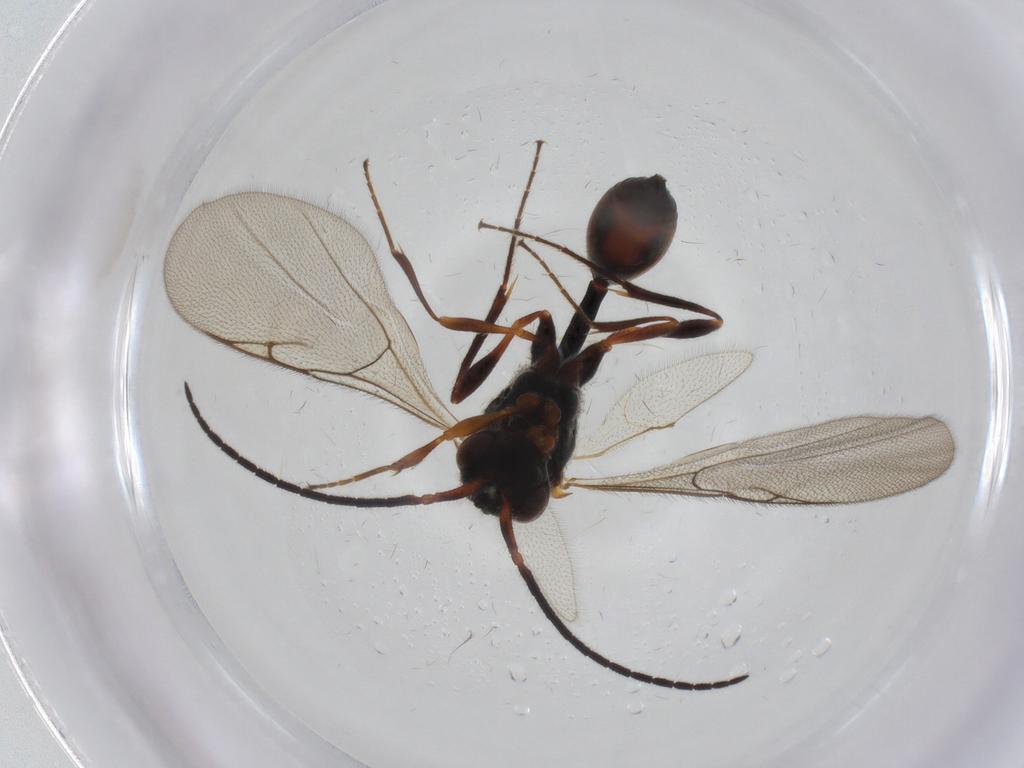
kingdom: Animalia
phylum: Arthropoda
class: Insecta
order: Hymenoptera
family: Diapriidae
